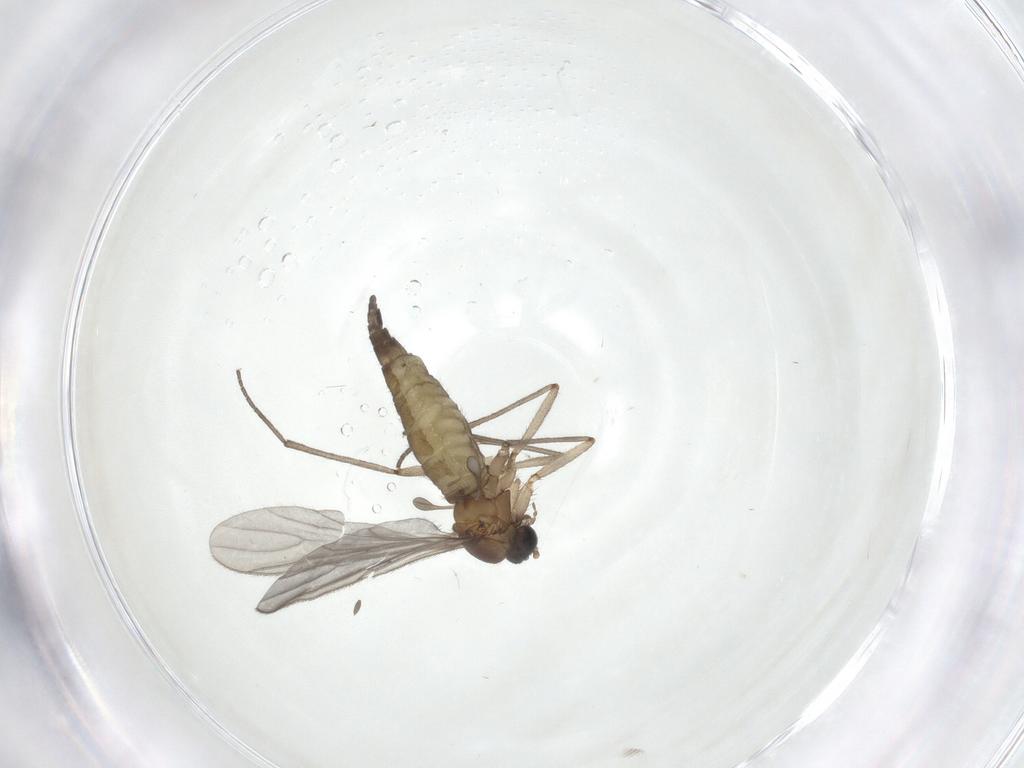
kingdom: Animalia
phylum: Arthropoda
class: Insecta
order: Diptera
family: Sciaridae
